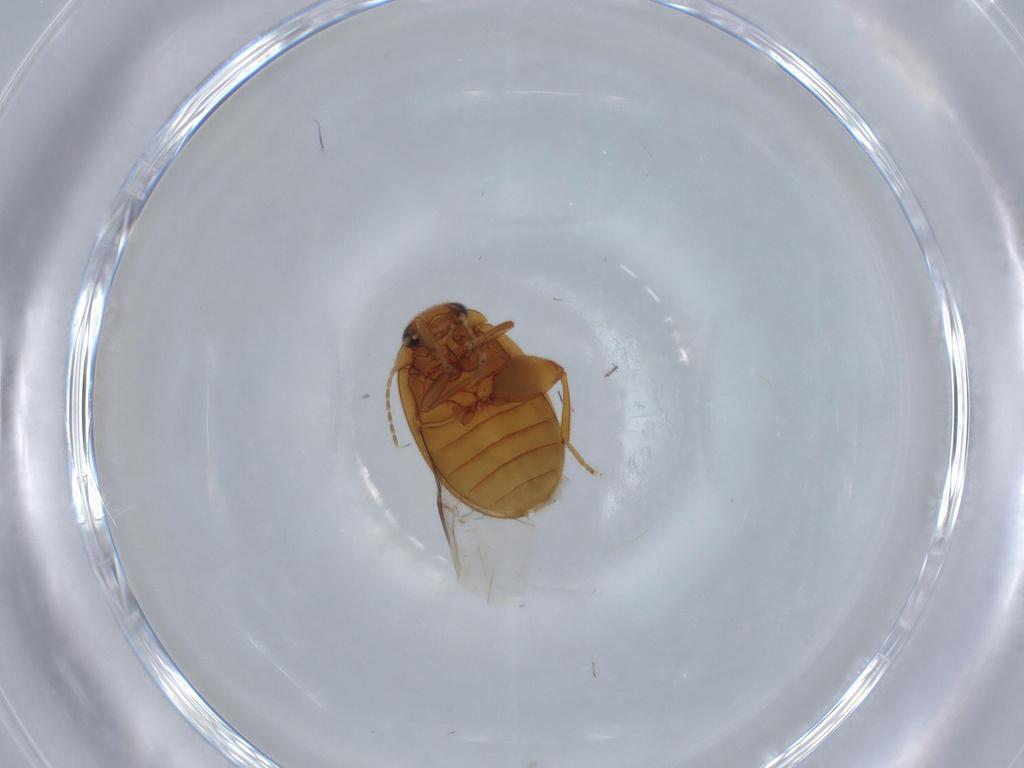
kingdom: Animalia
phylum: Arthropoda
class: Insecta
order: Coleoptera
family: Scirtidae
